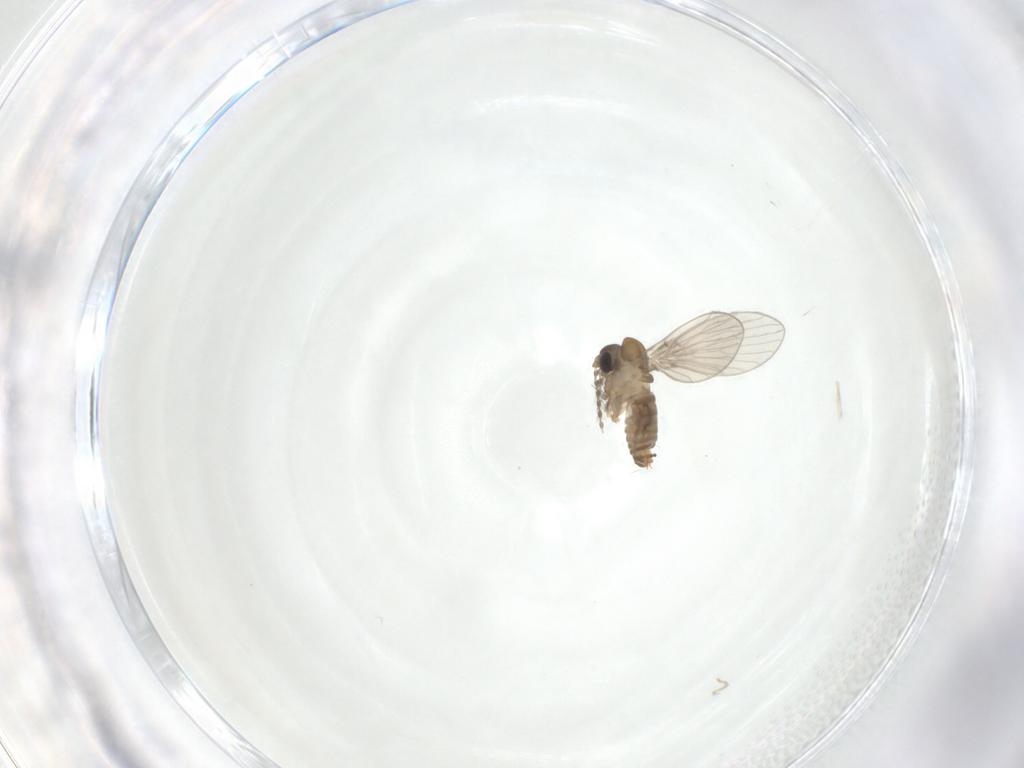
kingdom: Animalia
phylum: Arthropoda
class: Insecta
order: Diptera
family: Psychodidae
